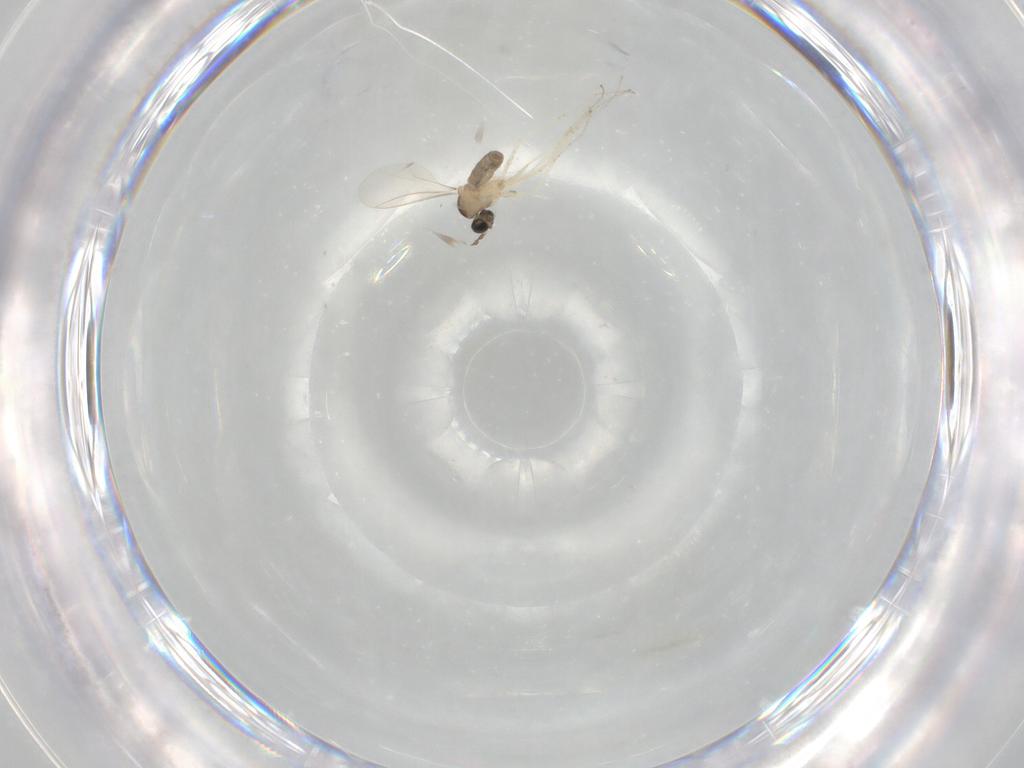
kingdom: Animalia
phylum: Arthropoda
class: Insecta
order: Diptera
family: Cecidomyiidae
